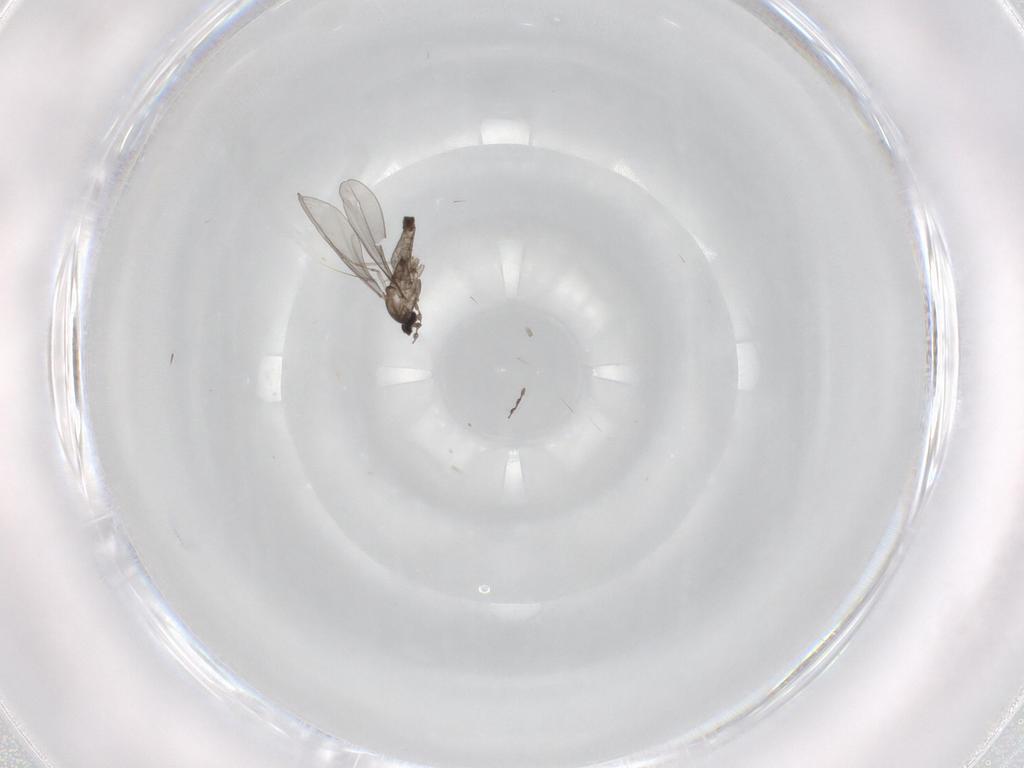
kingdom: Animalia
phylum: Arthropoda
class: Insecta
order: Diptera
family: Cecidomyiidae
